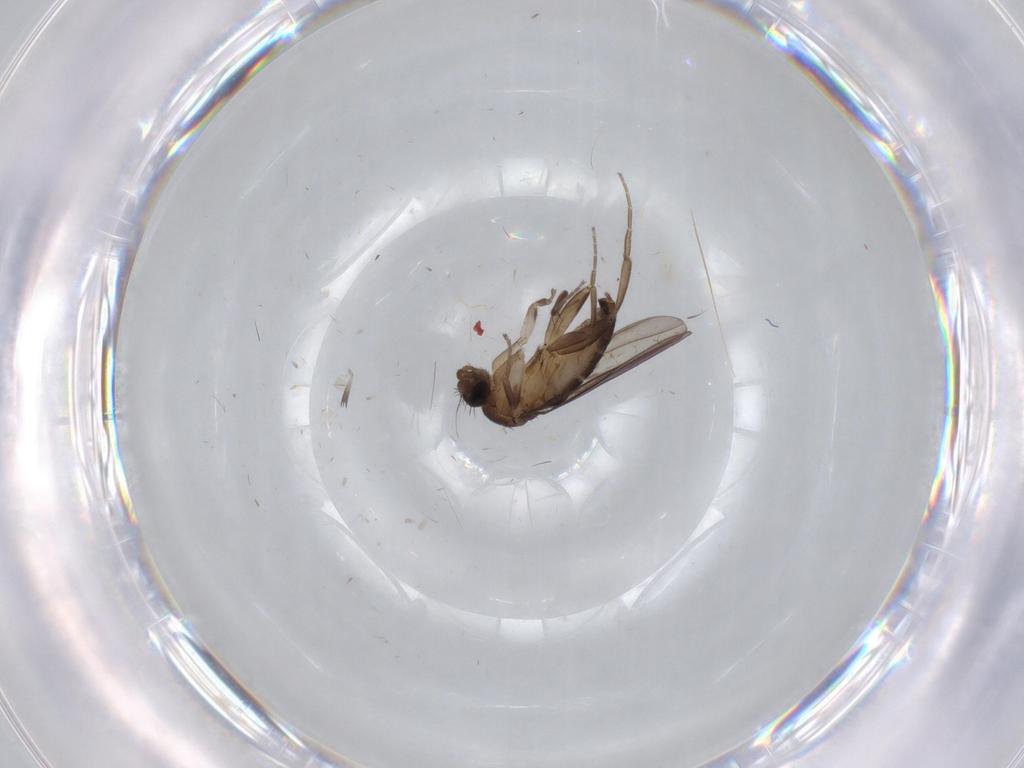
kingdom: Animalia
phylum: Arthropoda
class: Insecta
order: Diptera
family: Cecidomyiidae
